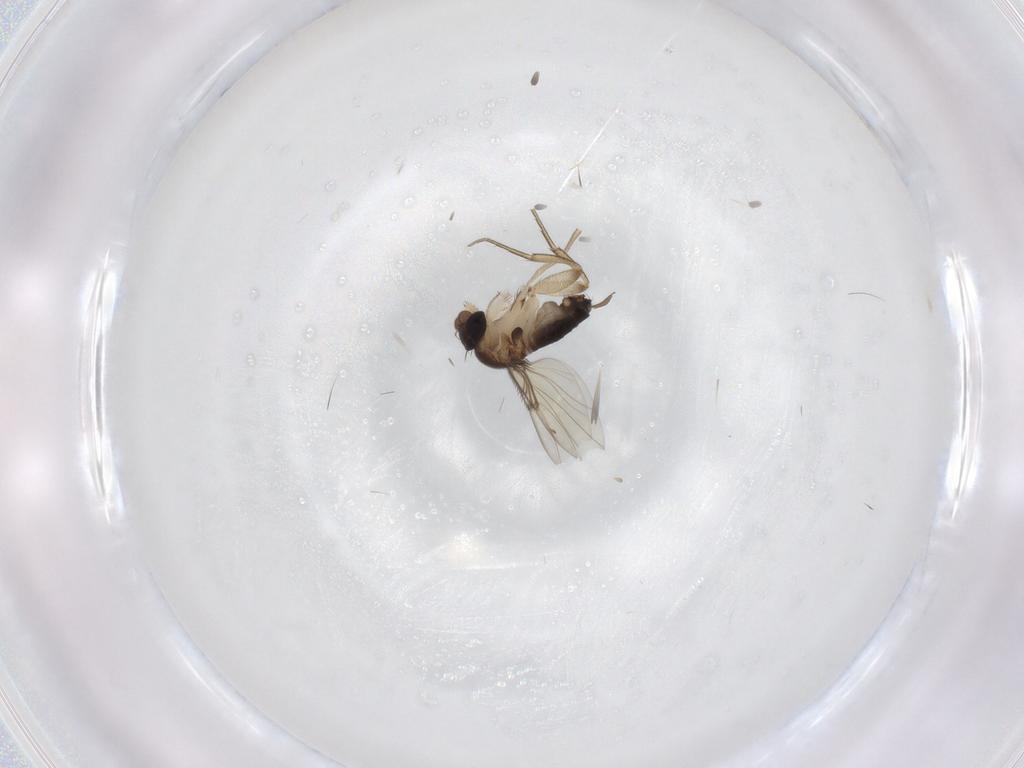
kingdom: Animalia
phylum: Arthropoda
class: Insecta
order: Diptera
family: Phoridae
